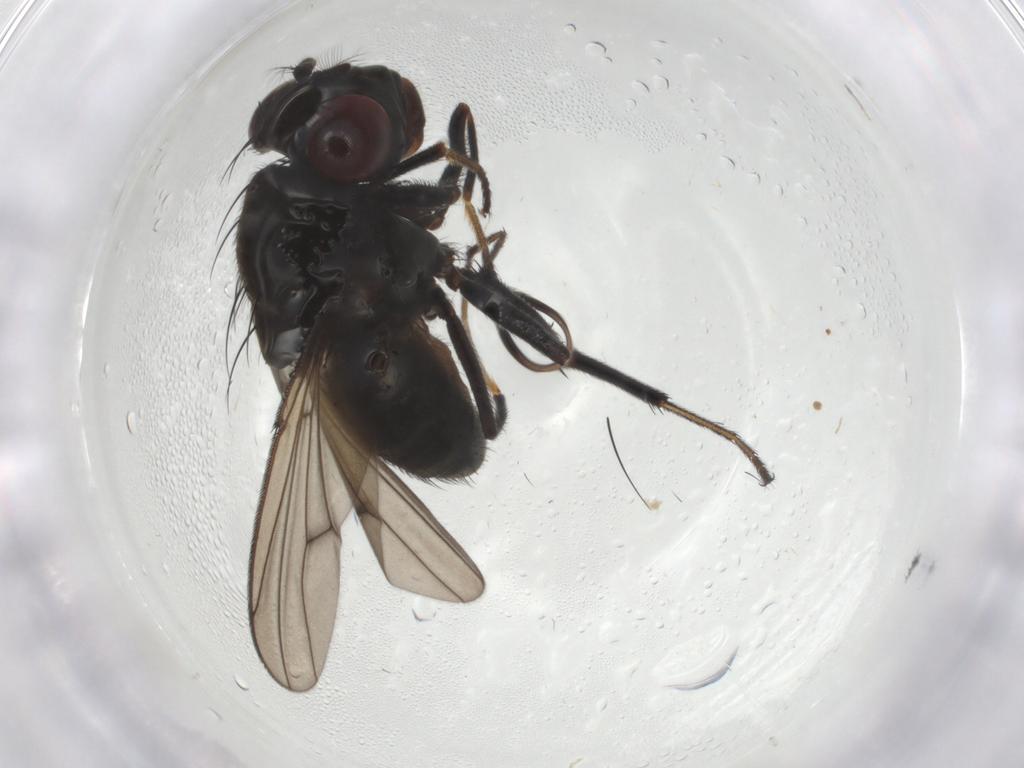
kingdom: Animalia
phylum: Arthropoda
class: Insecta
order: Diptera
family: Ephydridae
